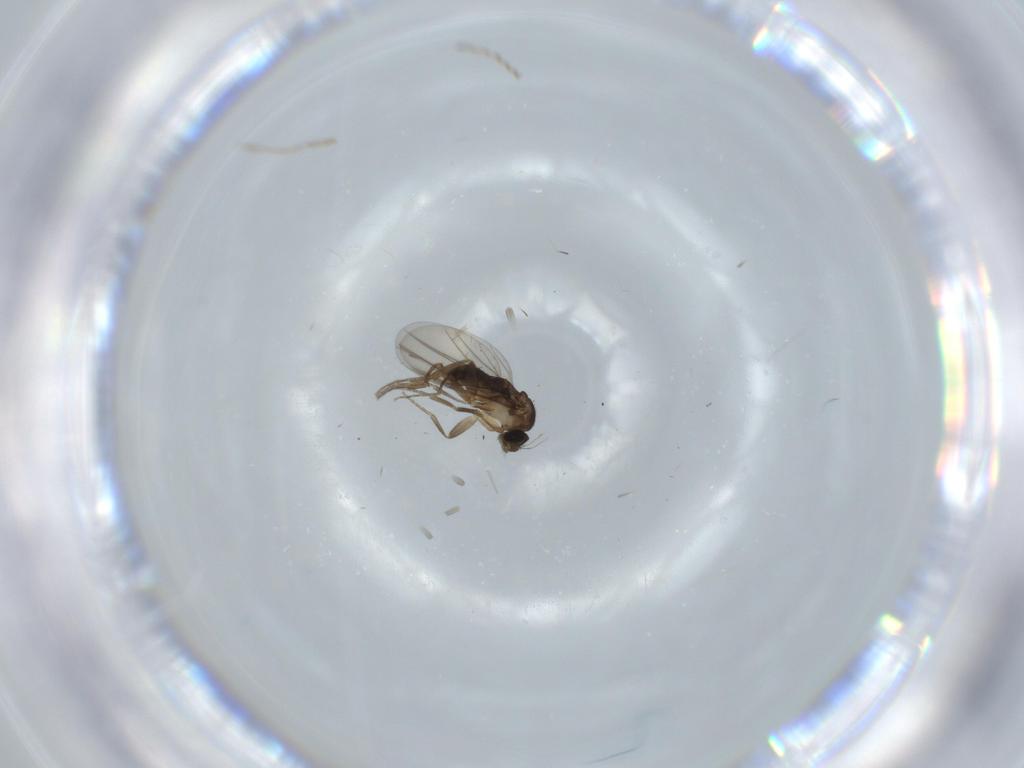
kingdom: Animalia
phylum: Arthropoda
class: Insecta
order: Diptera
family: Phoridae
